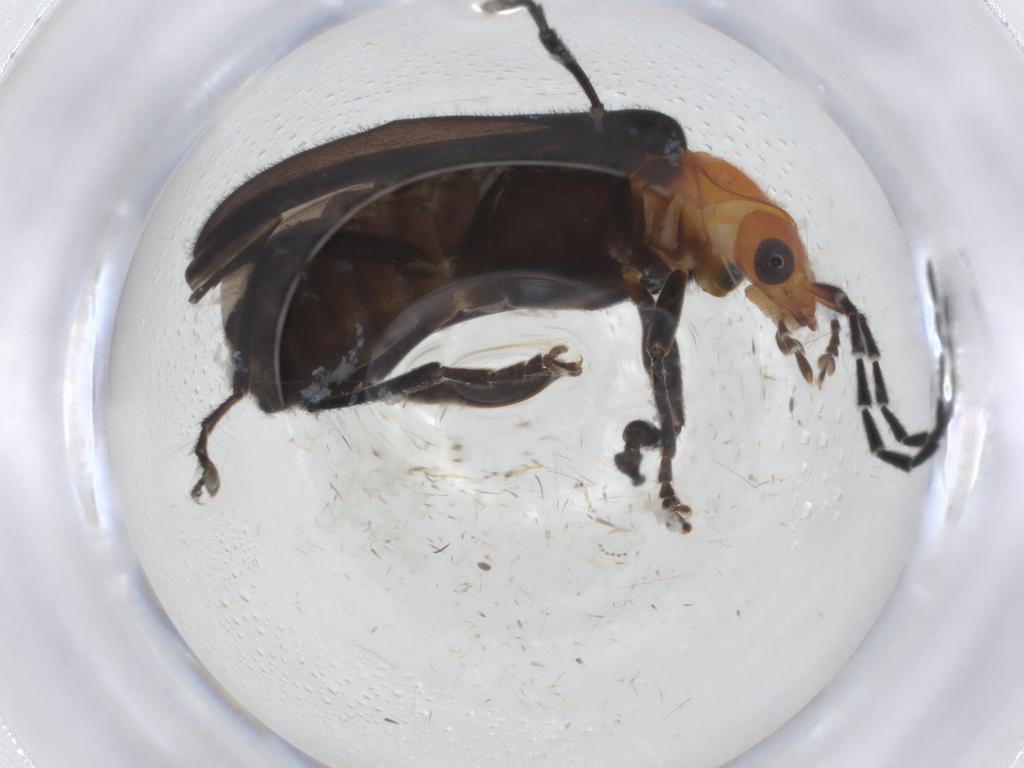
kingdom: Animalia
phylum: Arthropoda
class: Insecta
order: Coleoptera
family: Cantharidae
